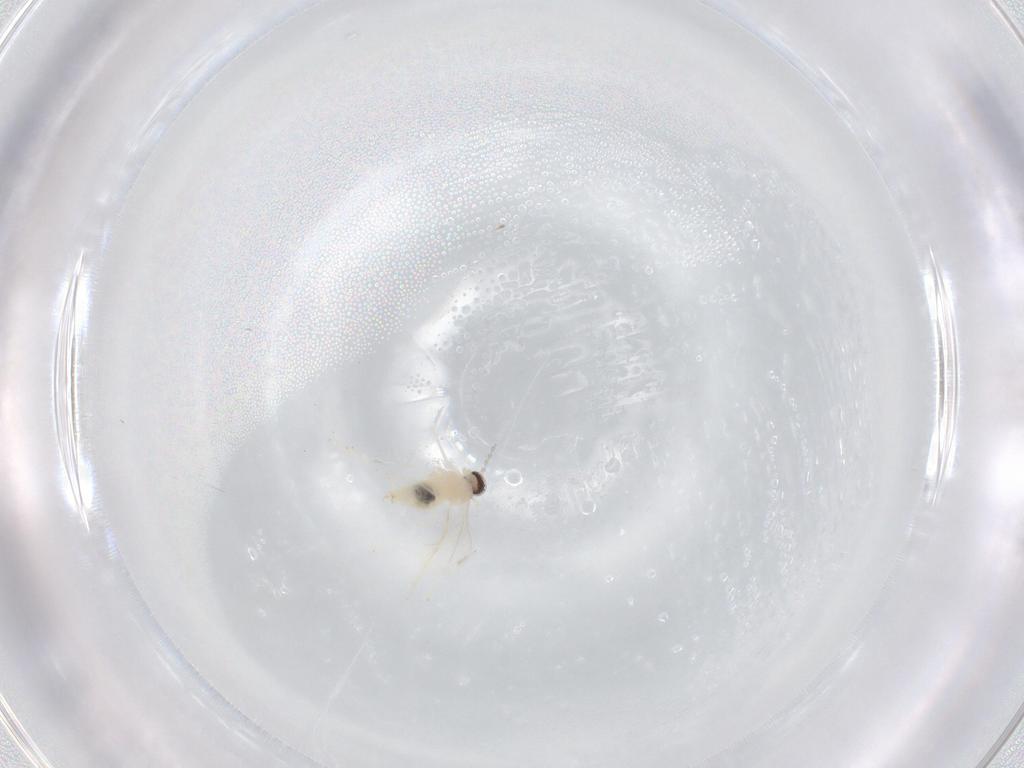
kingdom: Animalia
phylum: Arthropoda
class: Insecta
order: Diptera
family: Cecidomyiidae
